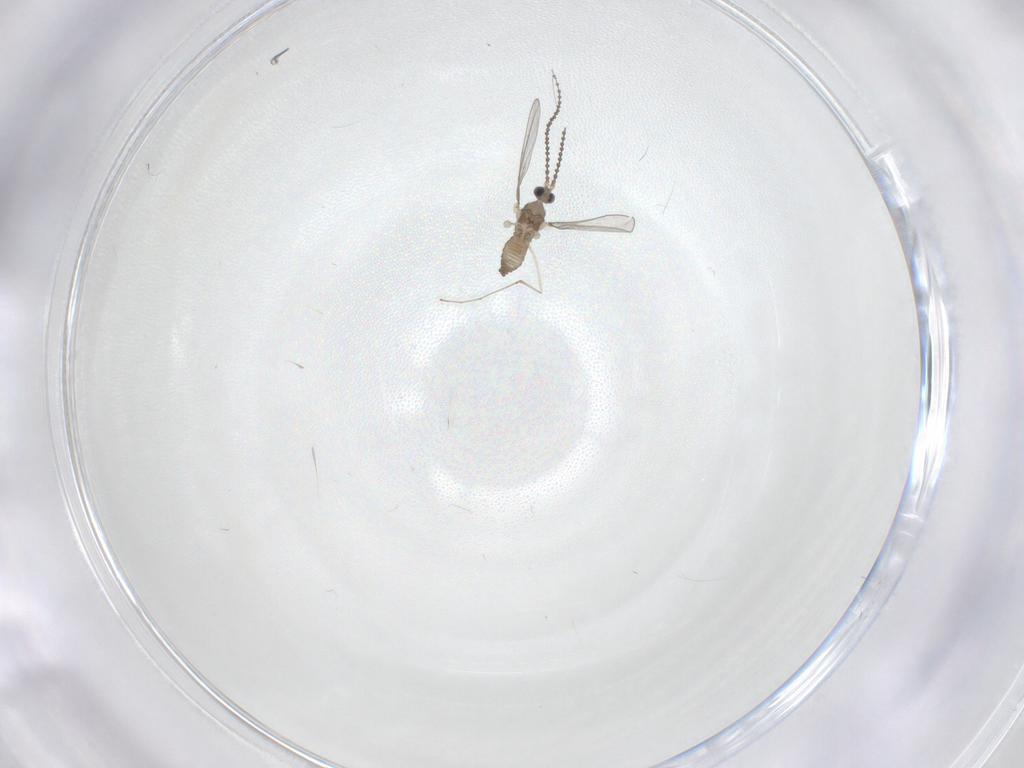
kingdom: Animalia
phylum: Arthropoda
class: Insecta
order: Diptera
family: Cecidomyiidae
